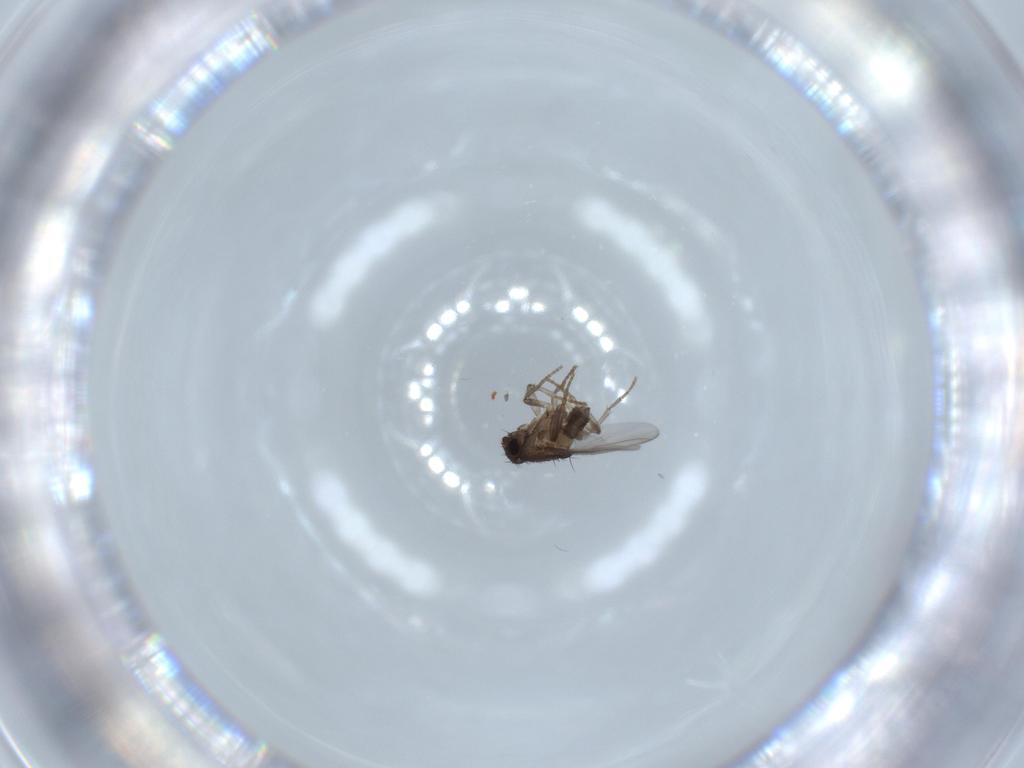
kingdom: Animalia
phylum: Arthropoda
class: Insecta
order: Diptera
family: Sphaeroceridae
